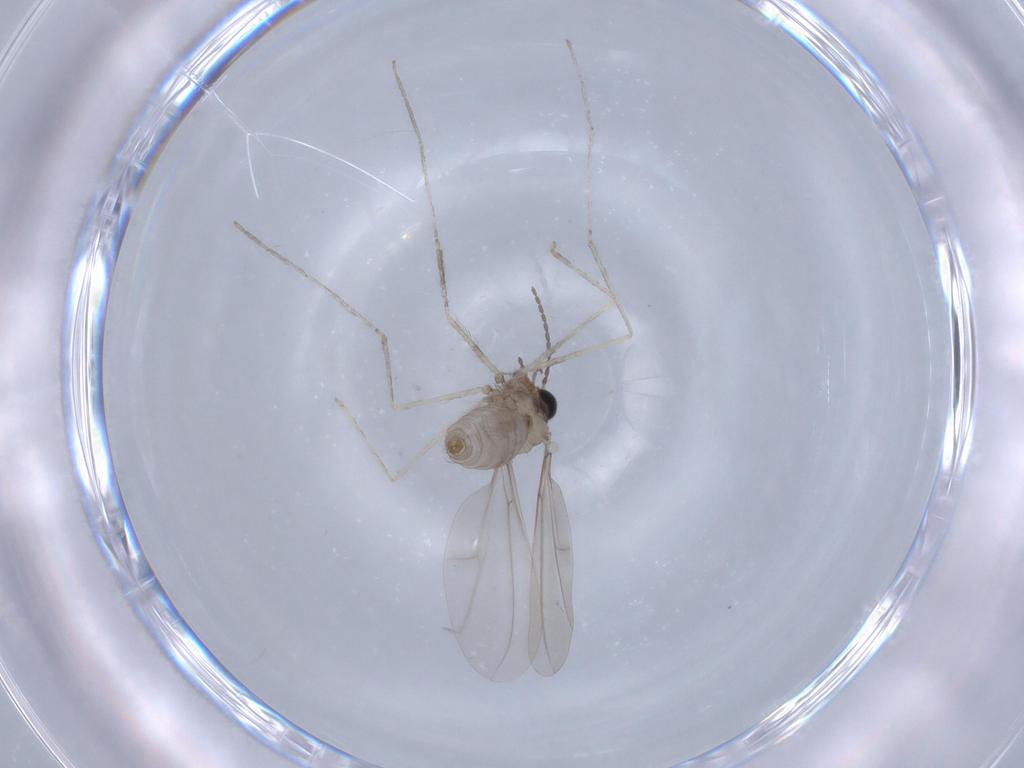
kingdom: Animalia
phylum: Arthropoda
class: Insecta
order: Diptera
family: Cecidomyiidae
